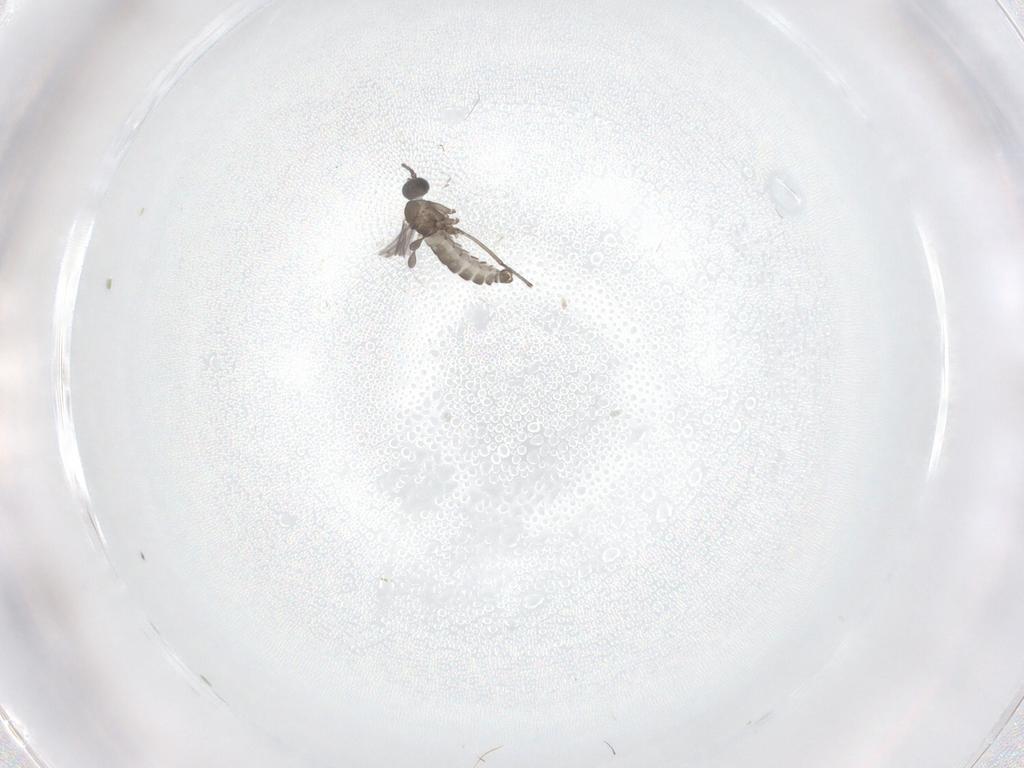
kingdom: Animalia
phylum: Arthropoda
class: Insecta
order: Diptera
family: Sciaridae
